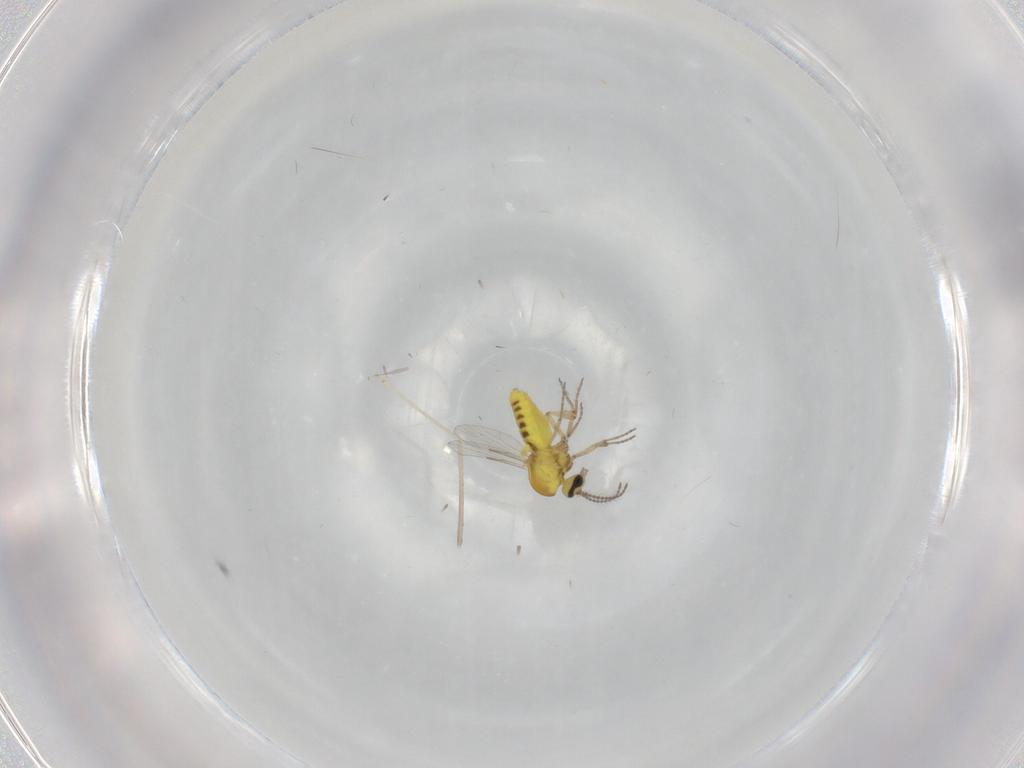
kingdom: Animalia
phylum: Arthropoda
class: Insecta
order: Diptera
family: Ceratopogonidae
